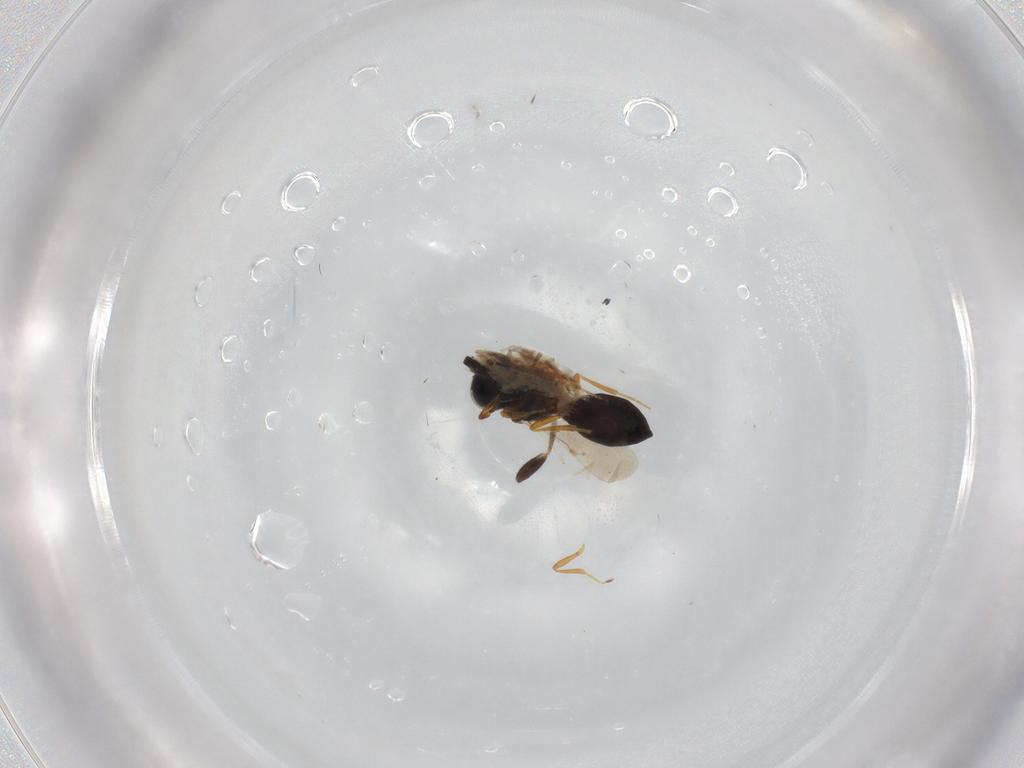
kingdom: Animalia
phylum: Arthropoda
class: Insecta
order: Hymenoptera
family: Scelionidae
